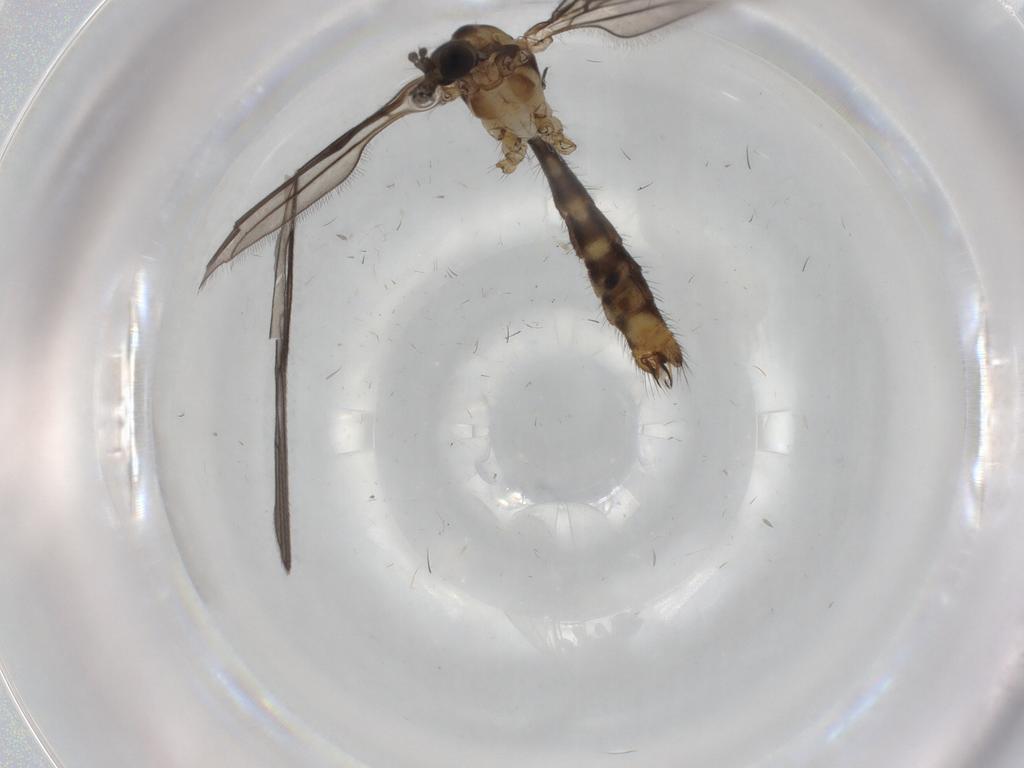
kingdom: Animalia
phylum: Arthropoda
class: Insecta
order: Diptera
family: Limoniidae
